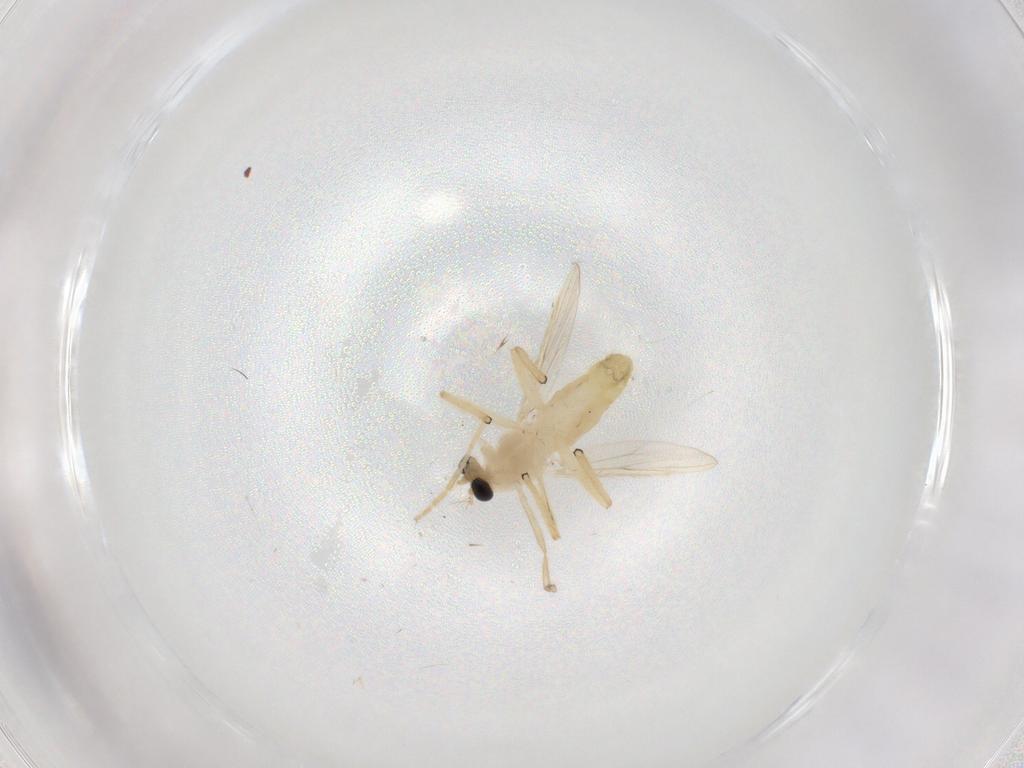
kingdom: Animalia
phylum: Arthropoda
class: Insecta
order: Diptera
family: Chironomidae
